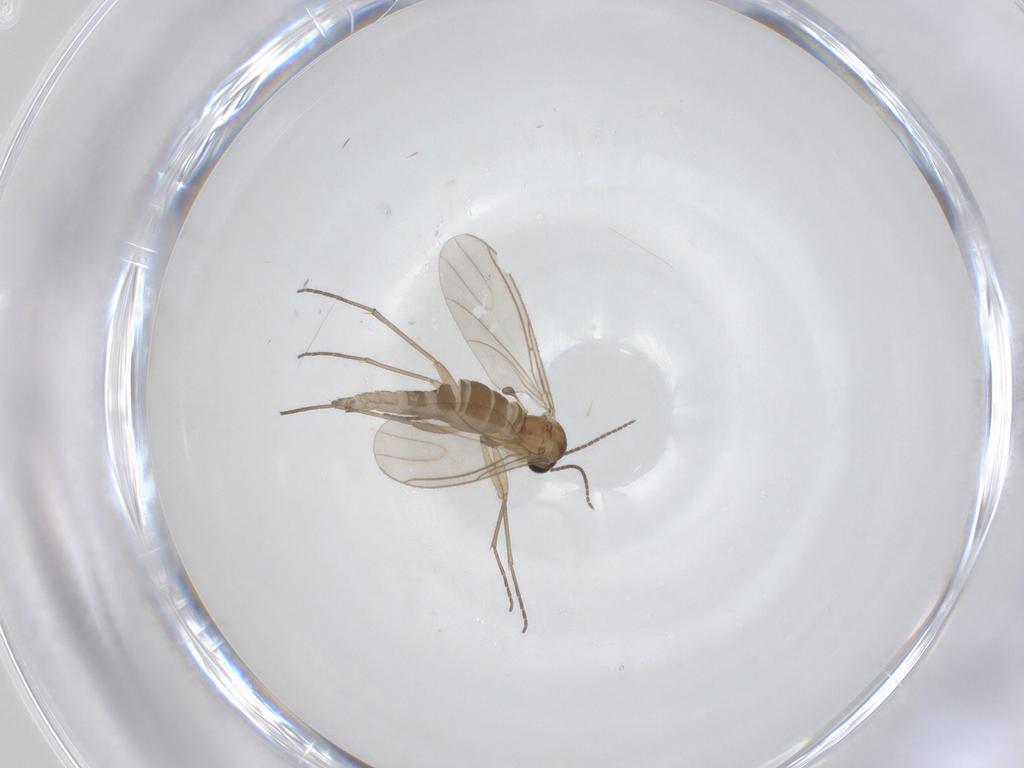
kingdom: Animalia
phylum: Arthropoda
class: Insecta
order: Diptera
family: Sciaridae
